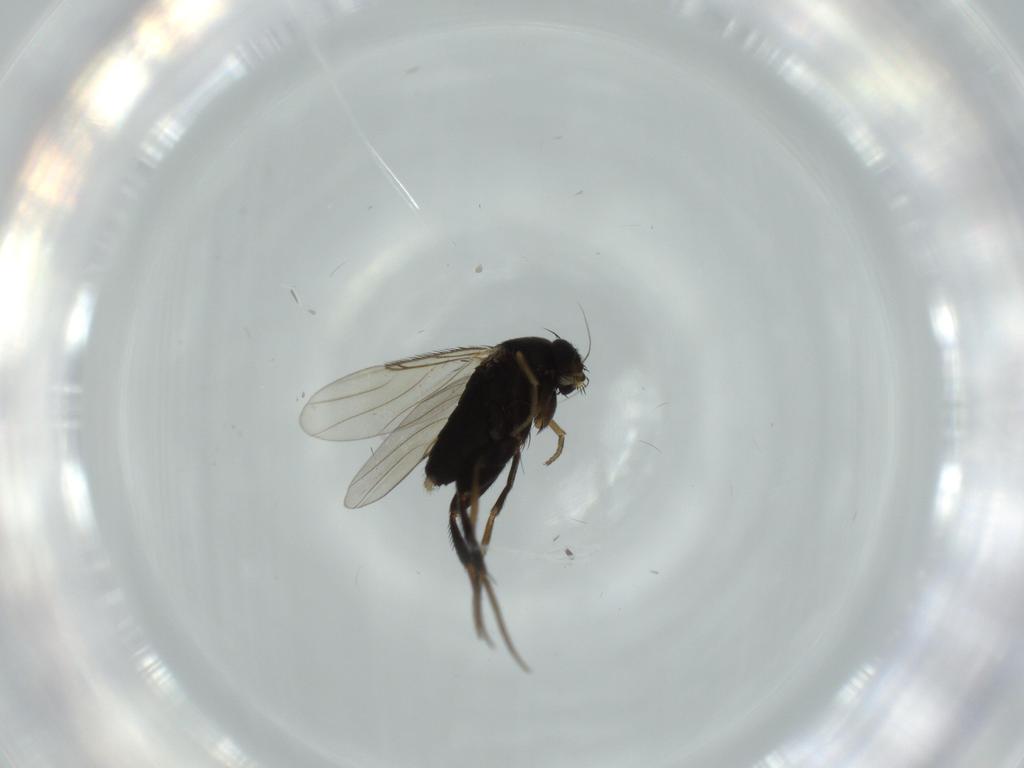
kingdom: Animalia
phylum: Arthropoda
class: Insecta
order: Diptera
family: Phoridae
